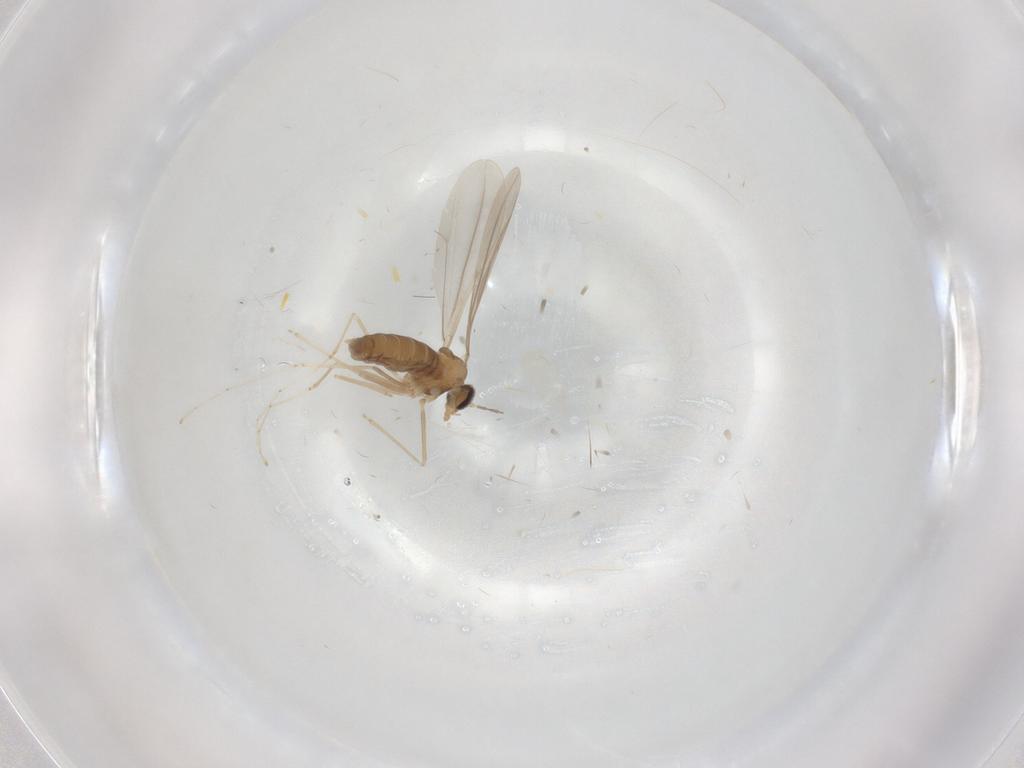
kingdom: Animalia
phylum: Arthropoda
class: Insecta
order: Diptera
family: Cecidomyiidae
